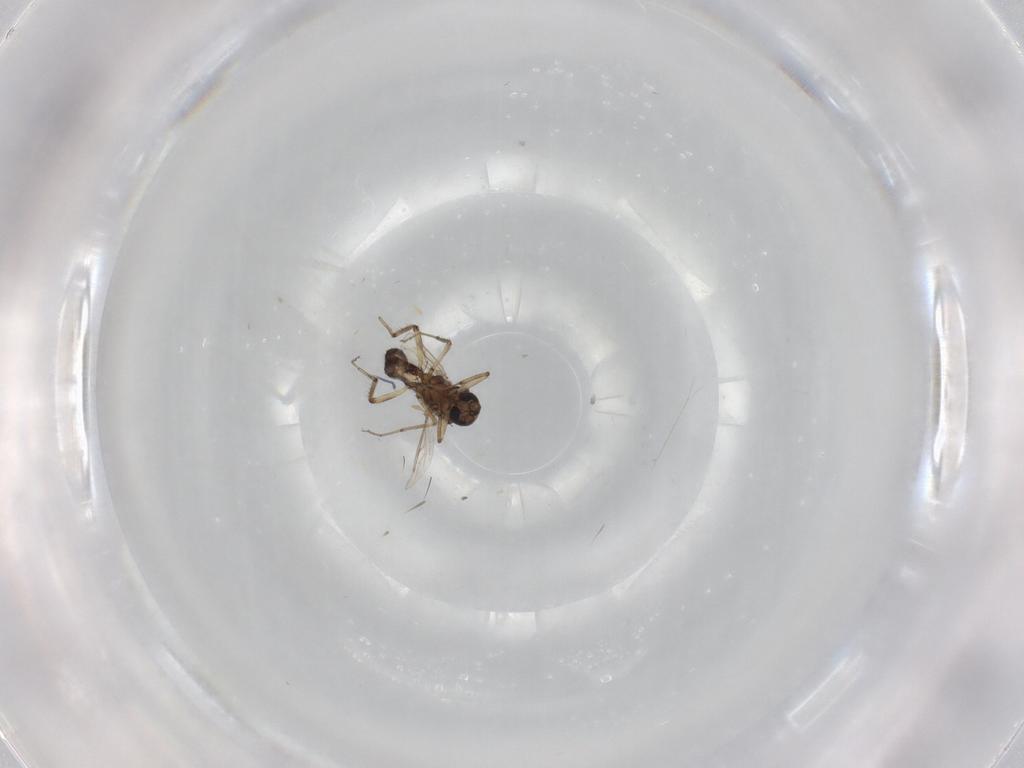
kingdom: Animalia
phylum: Arthropoda
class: Insecta
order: Diptera
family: Ceratopogonidae
